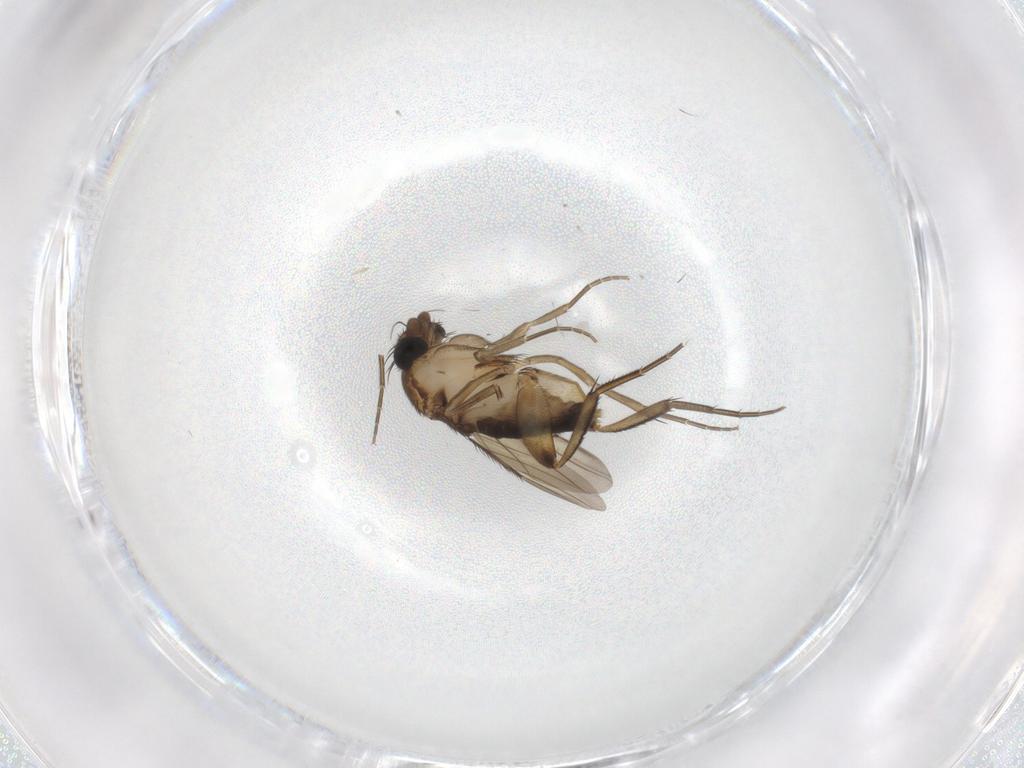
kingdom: Animalia
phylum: Arthropoda
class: Insecta
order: Diptera
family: Phoridae
